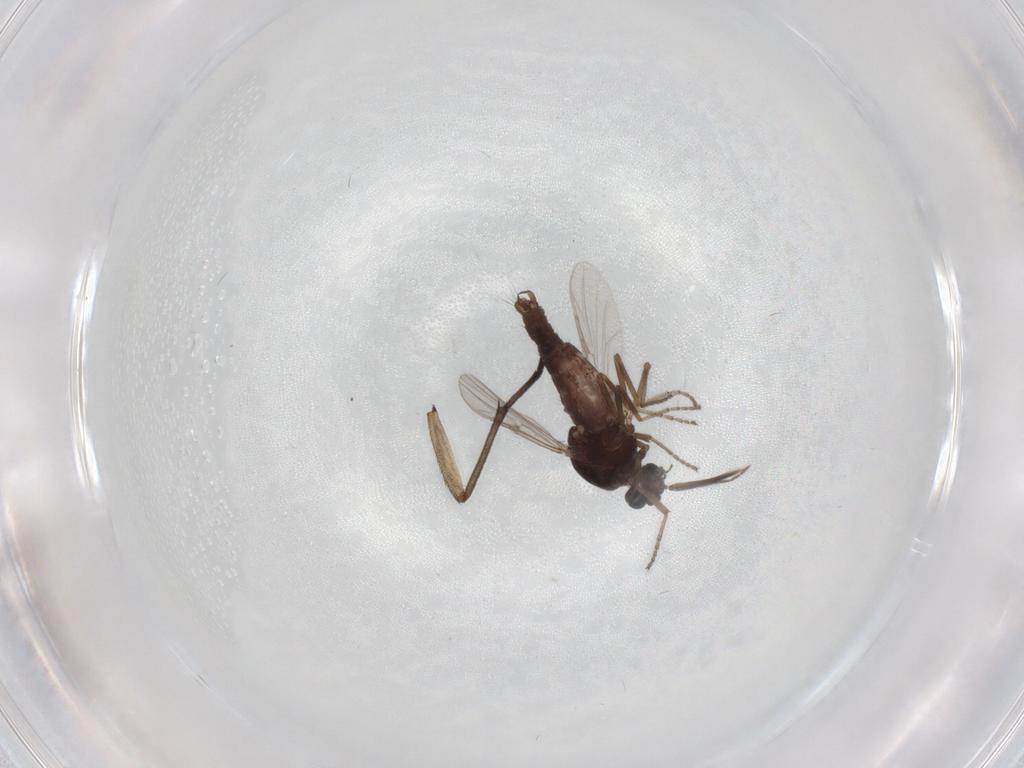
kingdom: Animalia
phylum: Arthropoda
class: Insecta
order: Diptera
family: Ceratopogonidae
